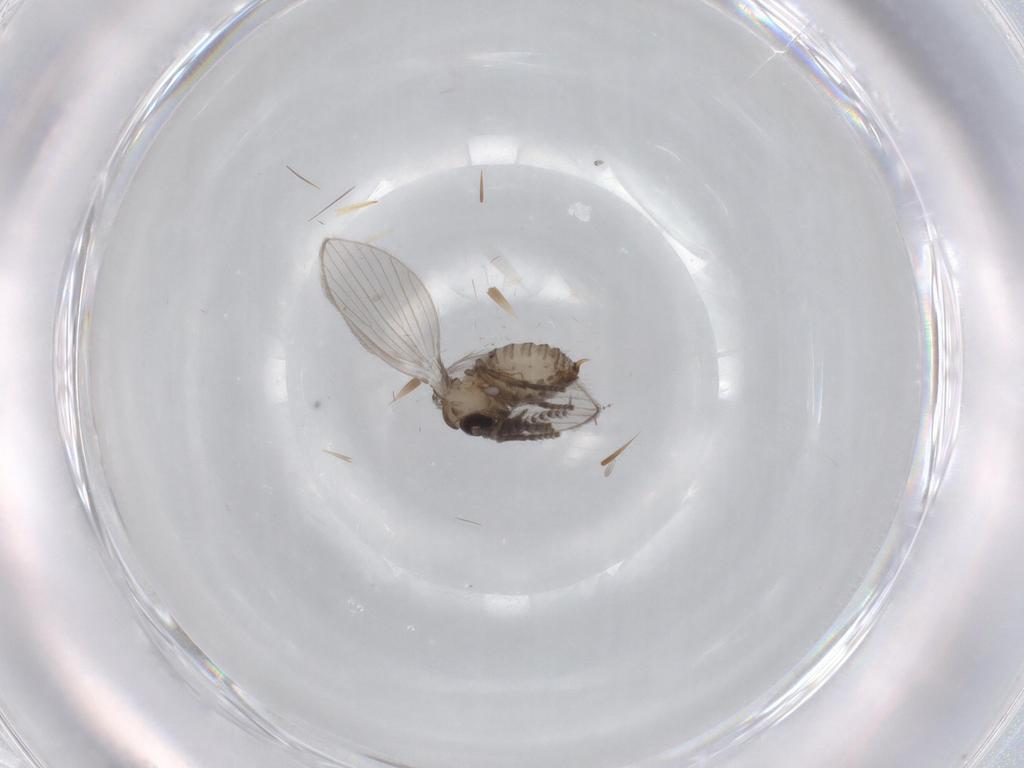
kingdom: Animalia
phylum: Arthropoda
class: Insecta
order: Diptera
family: Psychodidae
